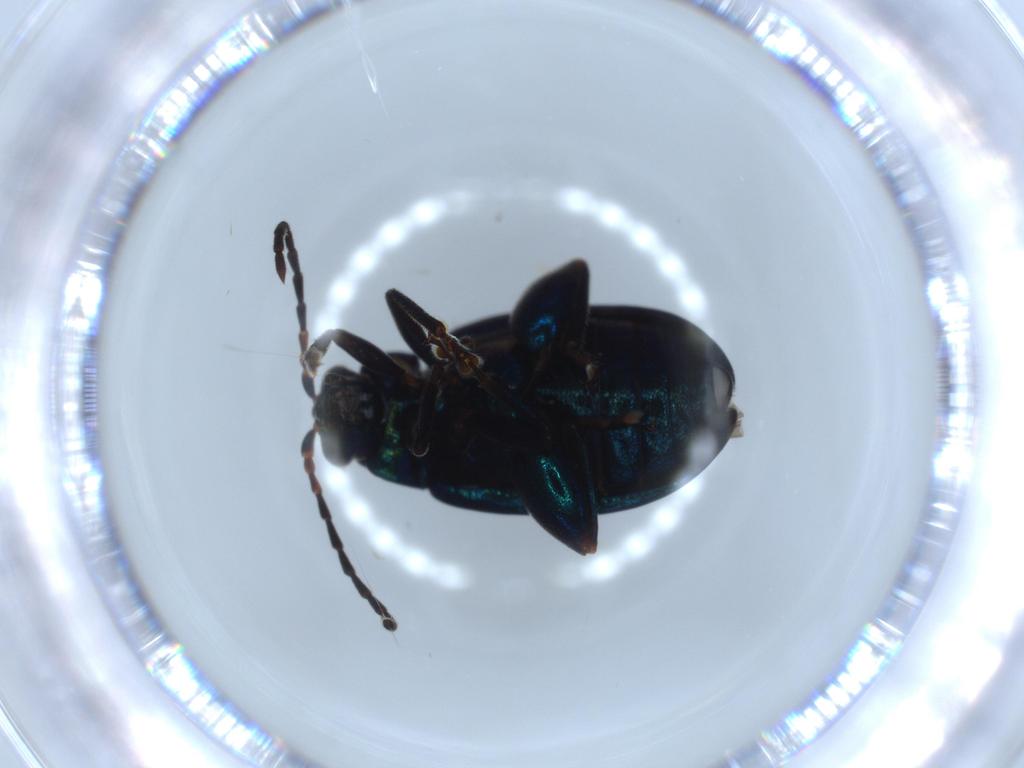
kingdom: Animalia
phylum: Arthropoda
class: Insecta
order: Coleoptera
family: Chrysomelidae
